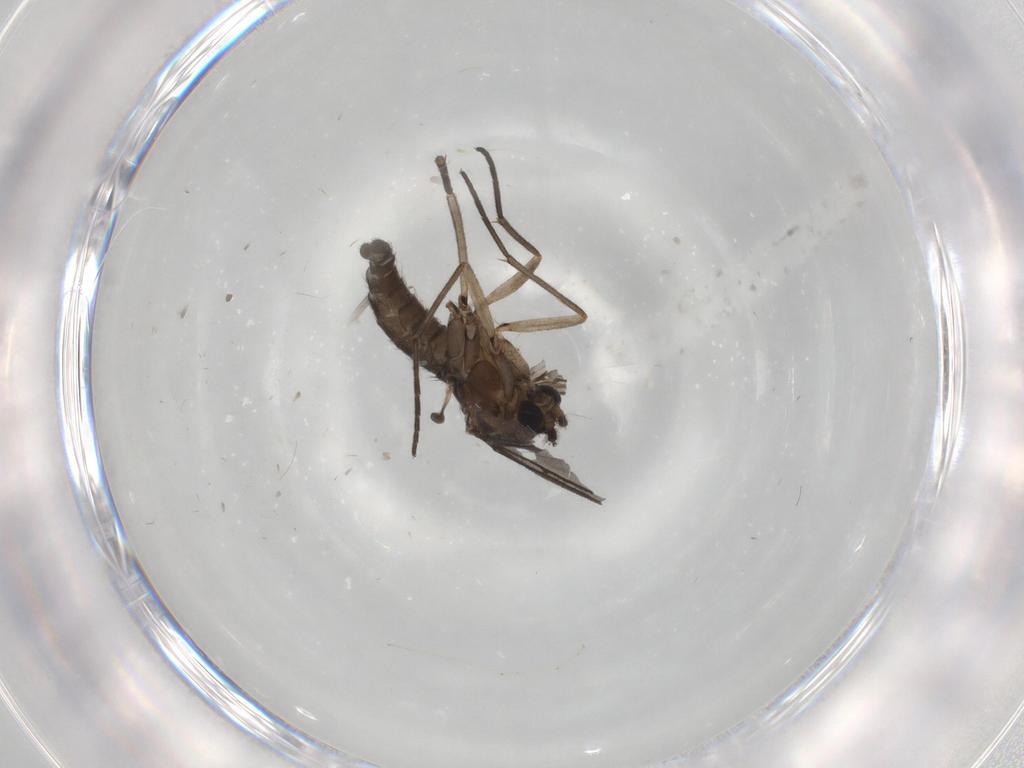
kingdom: Animalia
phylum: Arthropoda
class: Insecta
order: Diptera
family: Sciaridae
